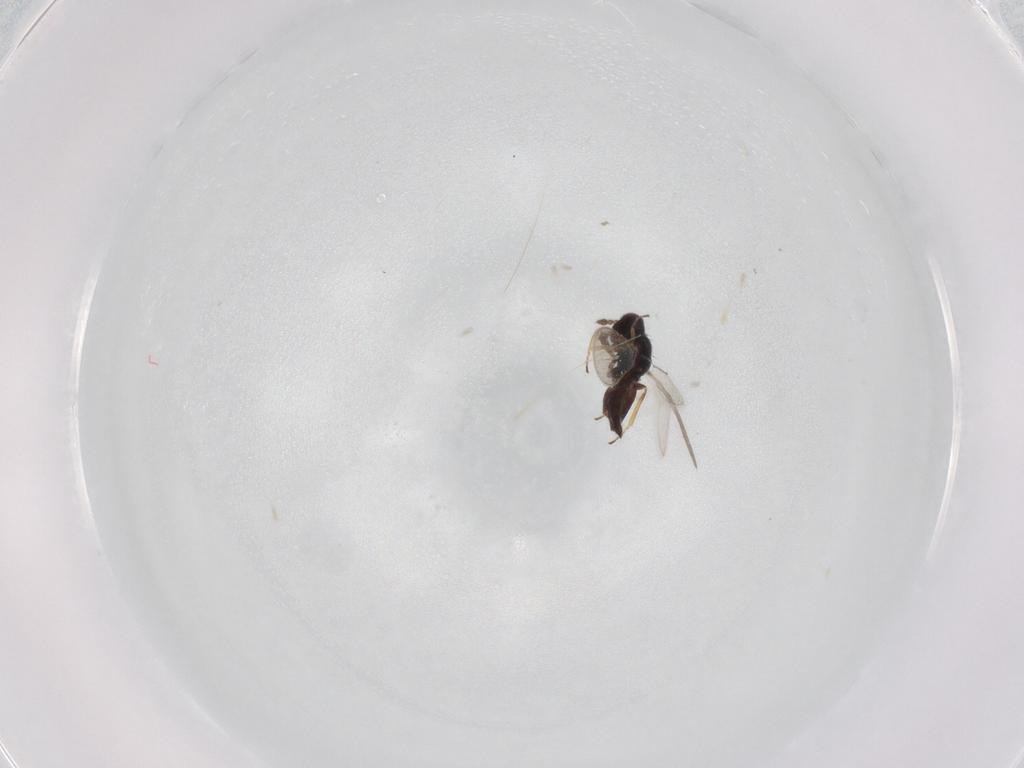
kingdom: Animalia
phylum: Arthropoda
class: Insecta
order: Hymenoptera
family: Eulophidae
